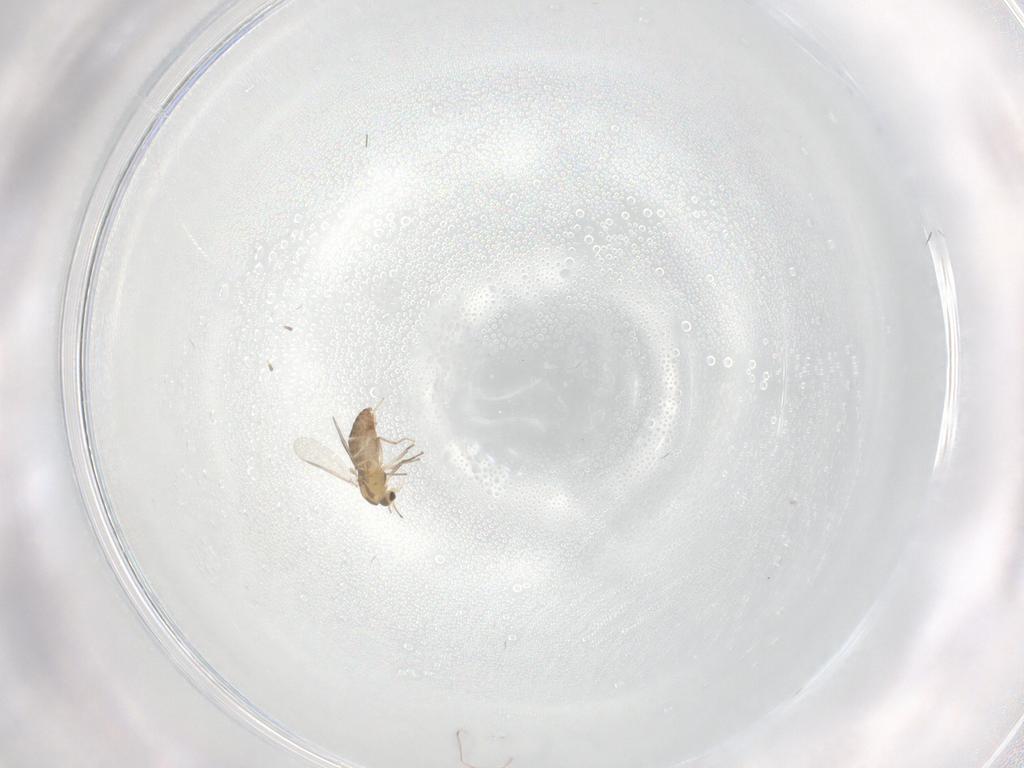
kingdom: Animalia
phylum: Arthropoda
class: Insecta
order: Diptera
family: Chironomidae
